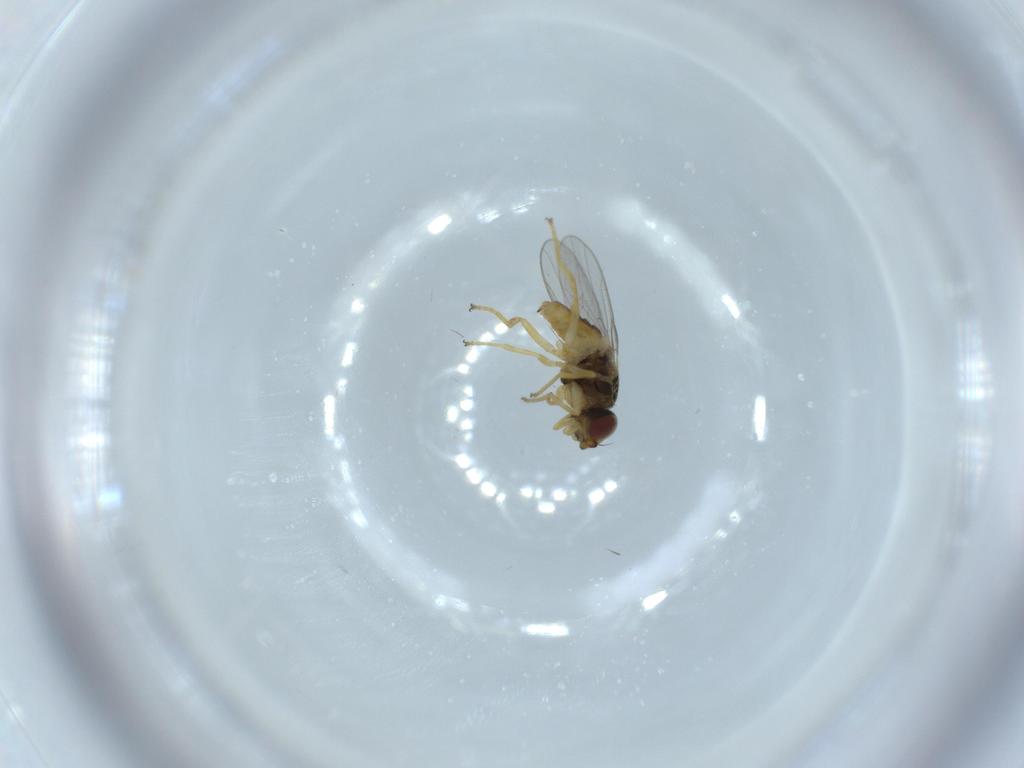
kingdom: Animalia
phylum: Arthropoda
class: Insecta
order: Diptera
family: Chloropidae
